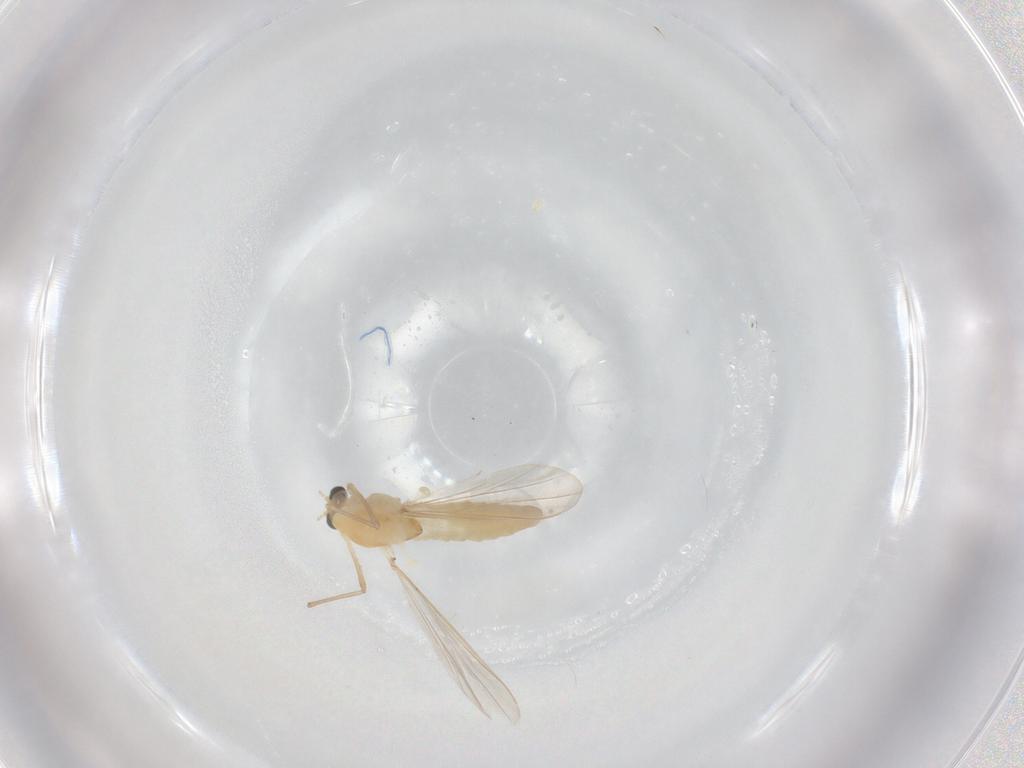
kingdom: Animalia
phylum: Arthropoda
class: Insecta
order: Diptera
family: Chironomidae
